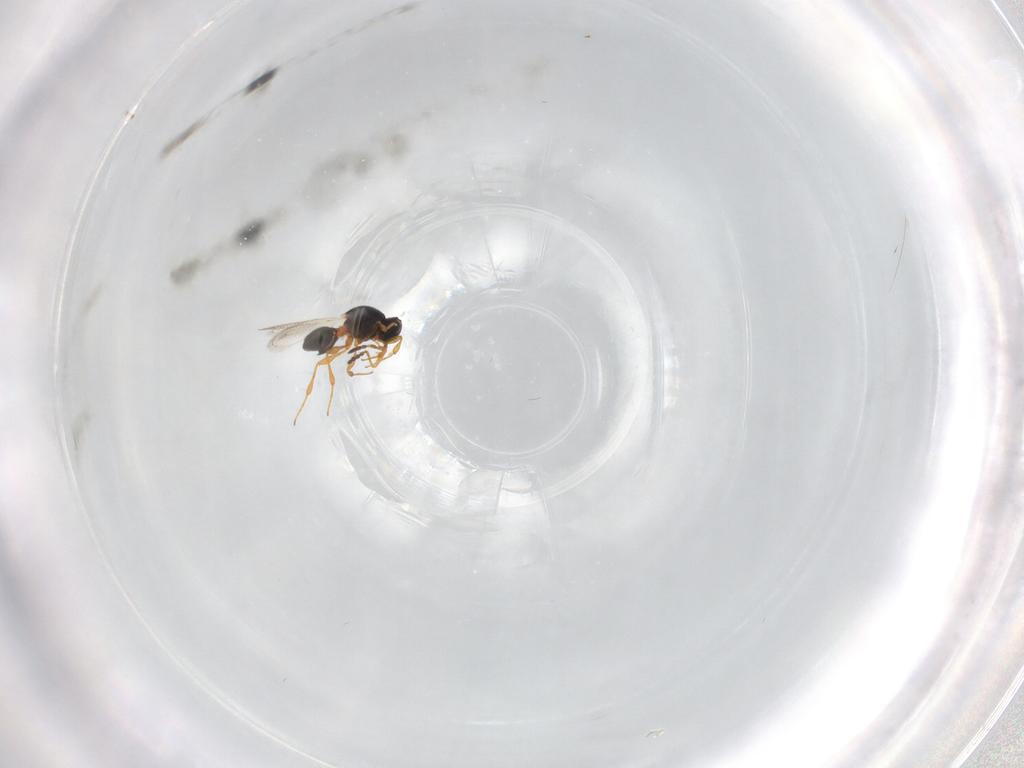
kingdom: Animalia
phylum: Arthropoda
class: Insecta
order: Hymenoptera
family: Platygastridae
